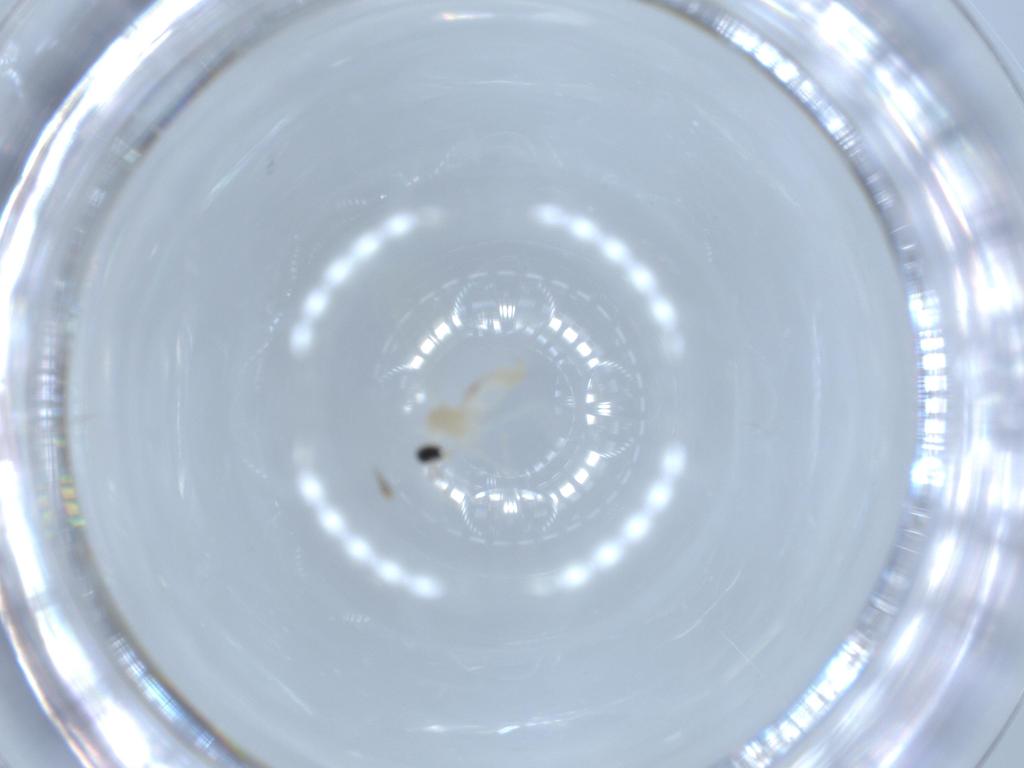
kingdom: Animalia
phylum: Arthropoda
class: Insecta
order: Diptera
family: Cecidomyiidae
